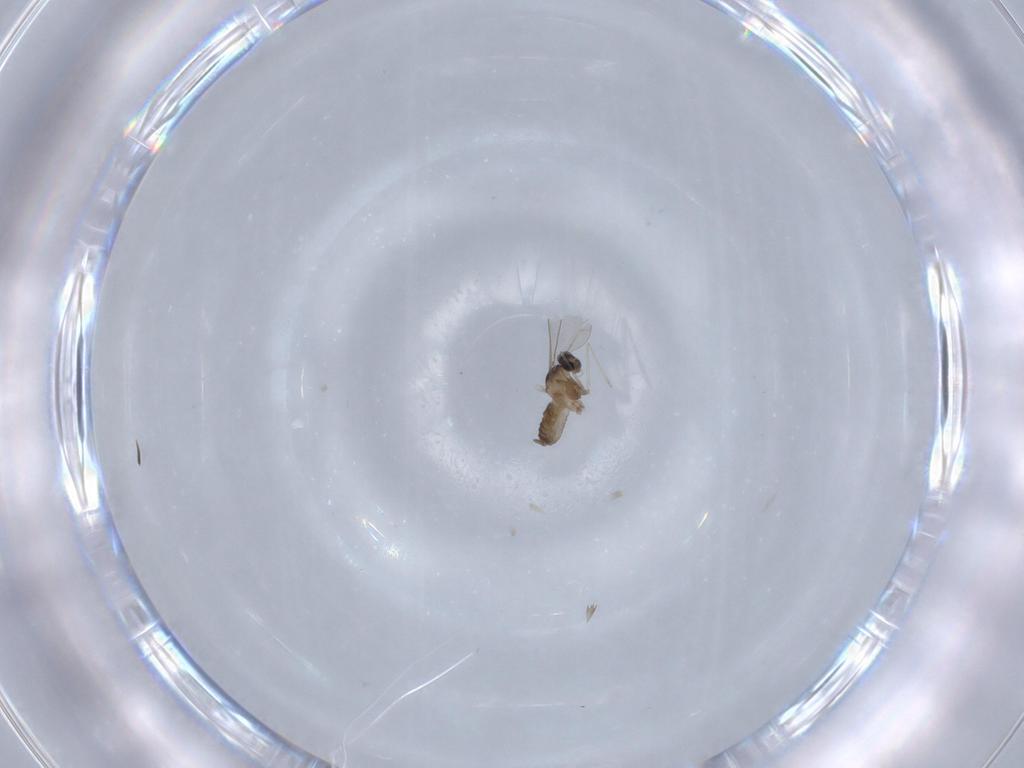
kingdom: Animalia
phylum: Arthropoda
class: Insecta
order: Diptera
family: Cecidomyiidae
